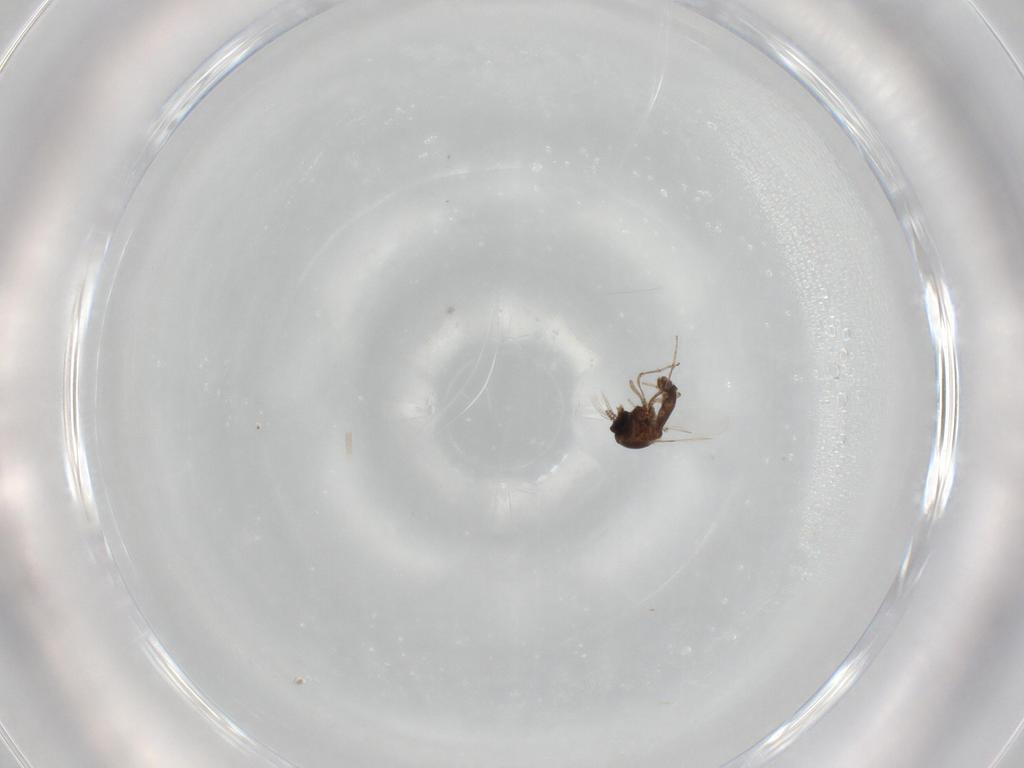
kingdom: Animalia
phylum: Arthropoda
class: Insecta
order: Diptera
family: Ceratopogonidae
